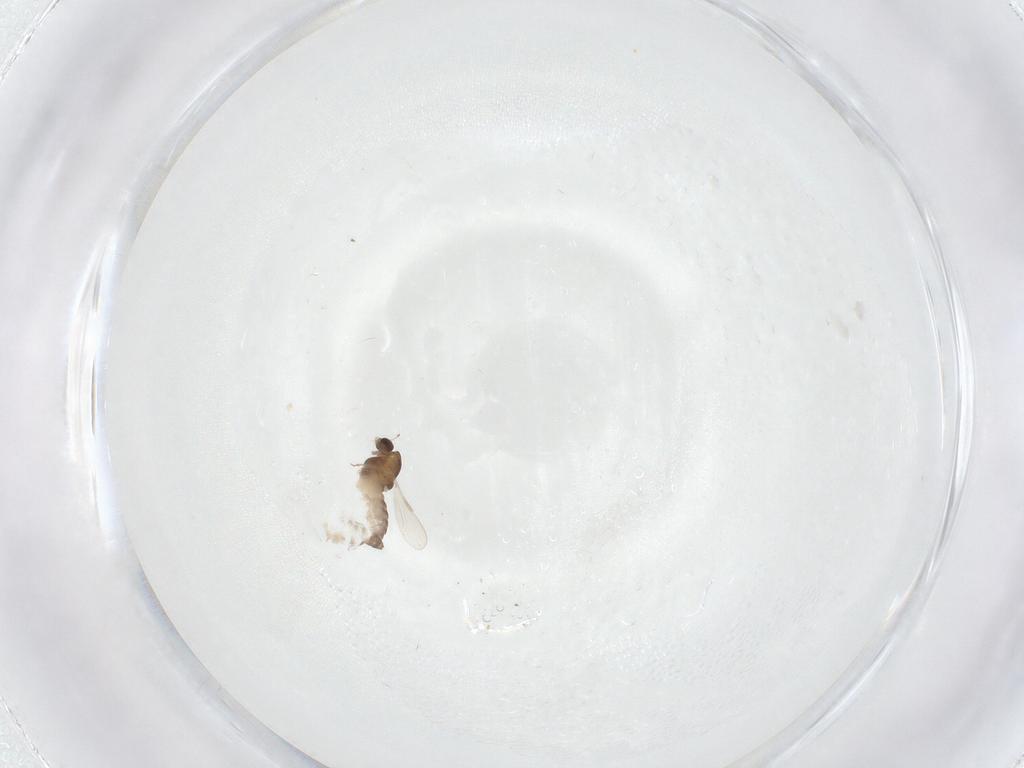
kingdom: Animalia
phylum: Arthropoda
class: Insecta
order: Diptera
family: Chironomidae
